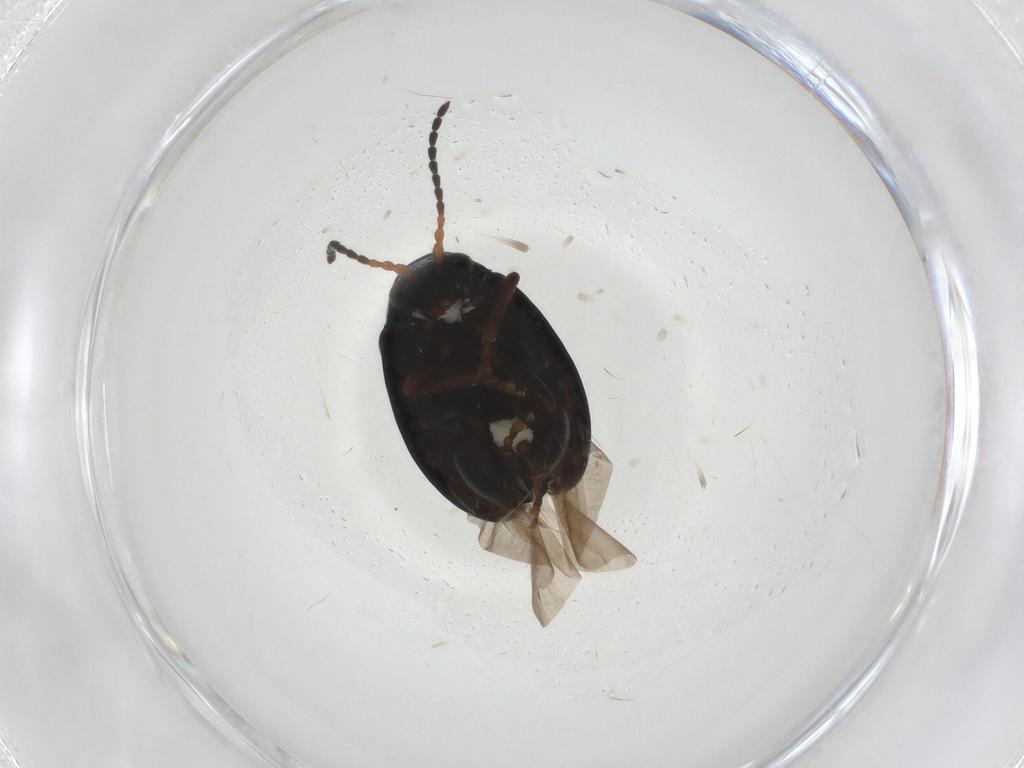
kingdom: Animalia
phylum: Arthropoda
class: Insecta
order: Coleoptera
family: Chrysomelidae
